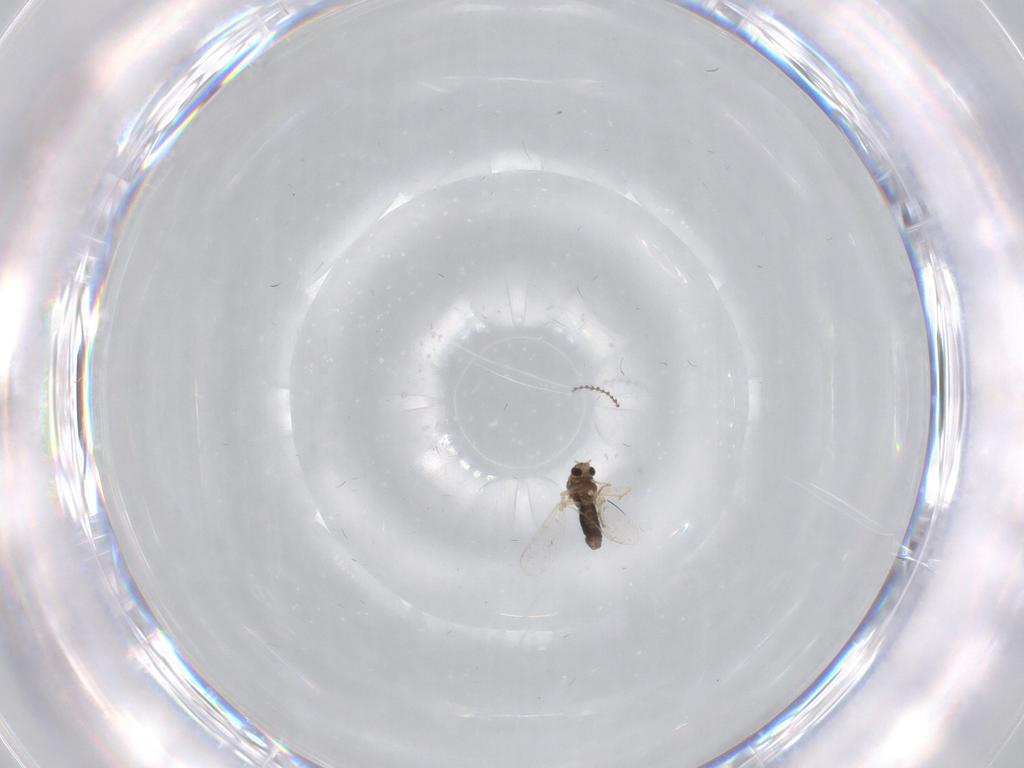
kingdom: Animalia
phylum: Arthropoda
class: Insecta
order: Diptera
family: Chironomidae
